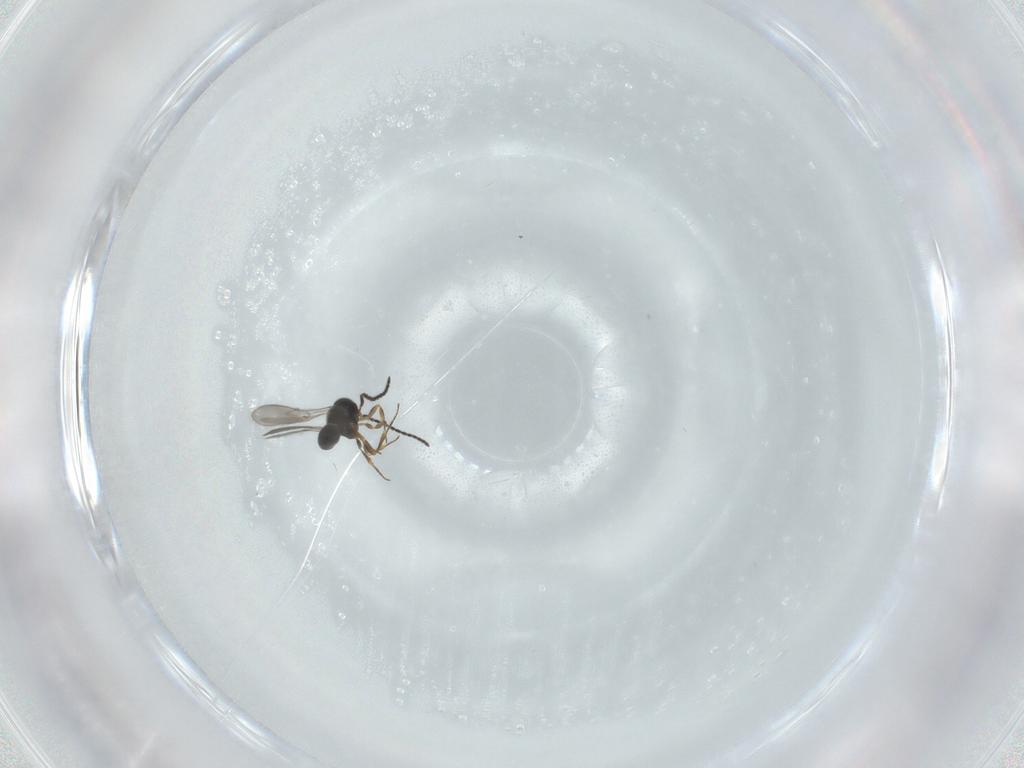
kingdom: Animalia
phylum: Arthropoda
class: Insecta
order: Hymenoptera
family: Scelionidae
